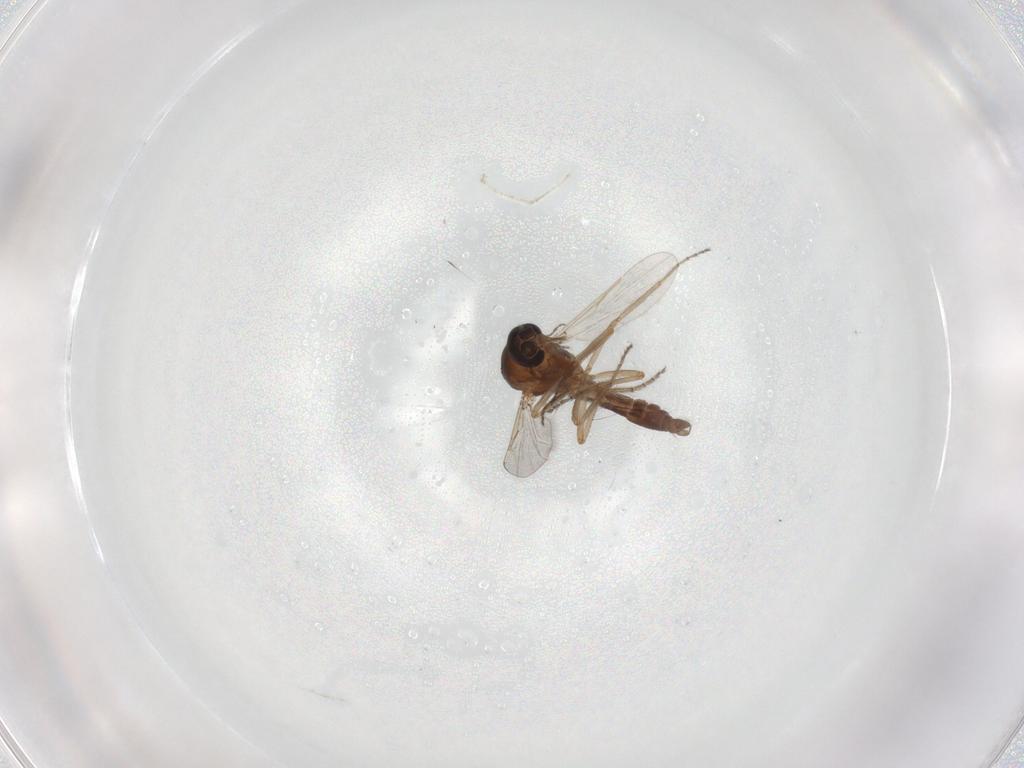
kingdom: Animalia
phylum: Arthropoda
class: Insecta
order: Diptera
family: Ceratopogonidae
